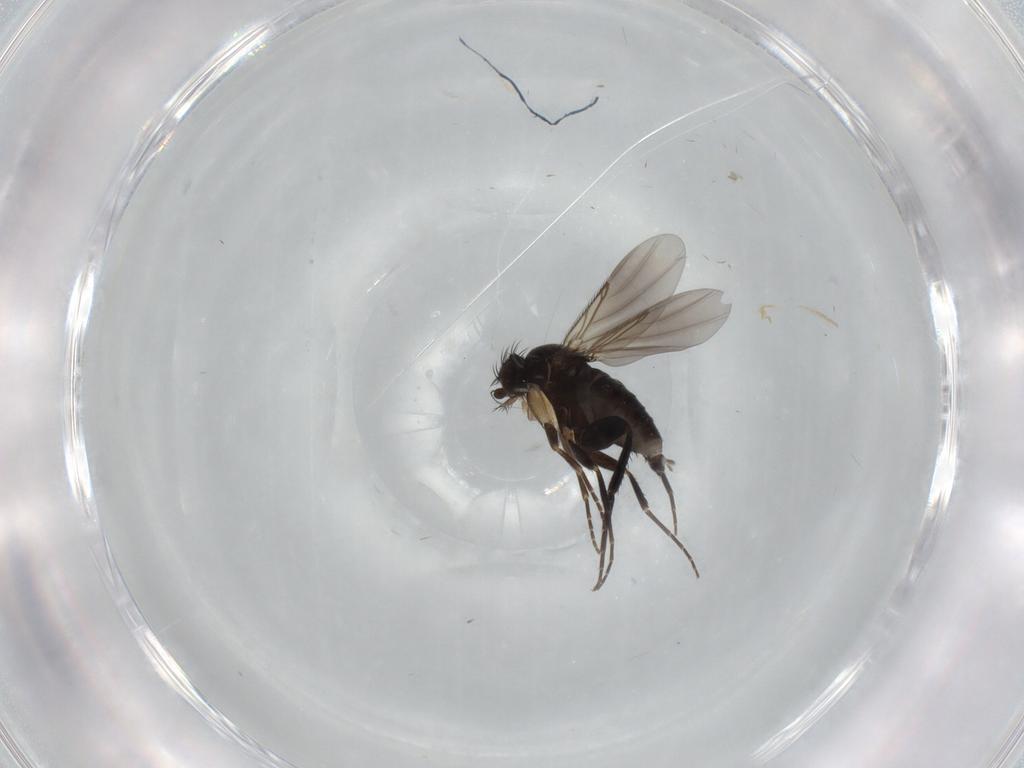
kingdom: Animalia
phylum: Arthropoda
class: Insecta
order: Diptera
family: Phoridae
